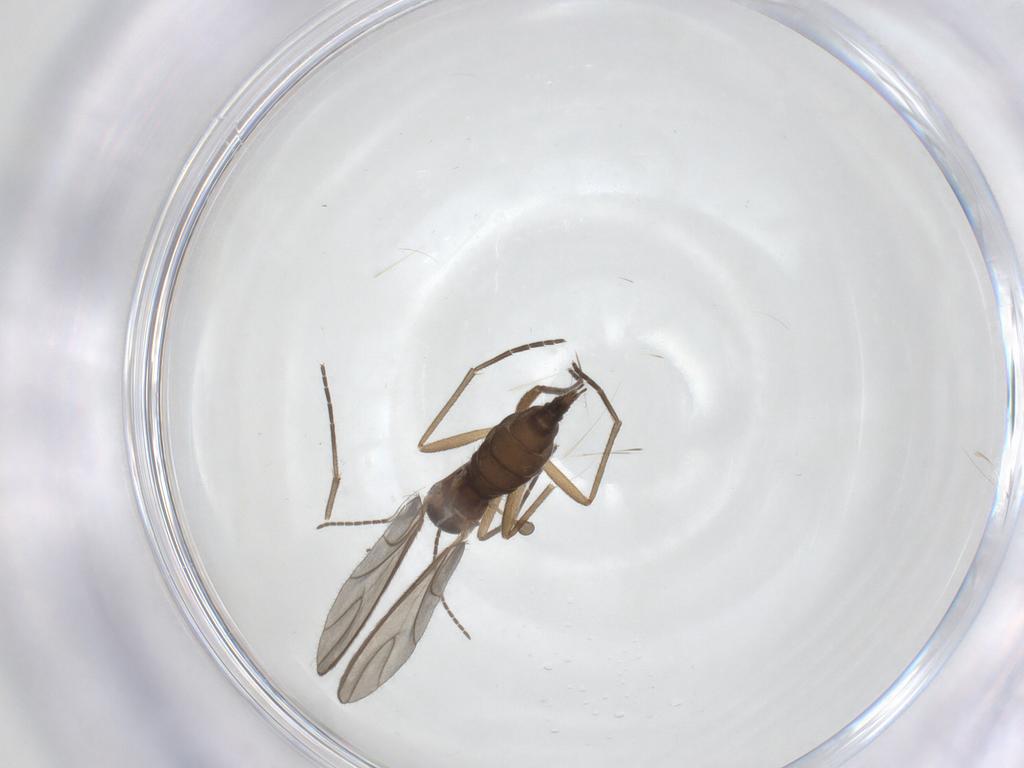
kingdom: Animalia
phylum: Arthropoda
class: Insecta
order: Diptera
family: Sciaridae
